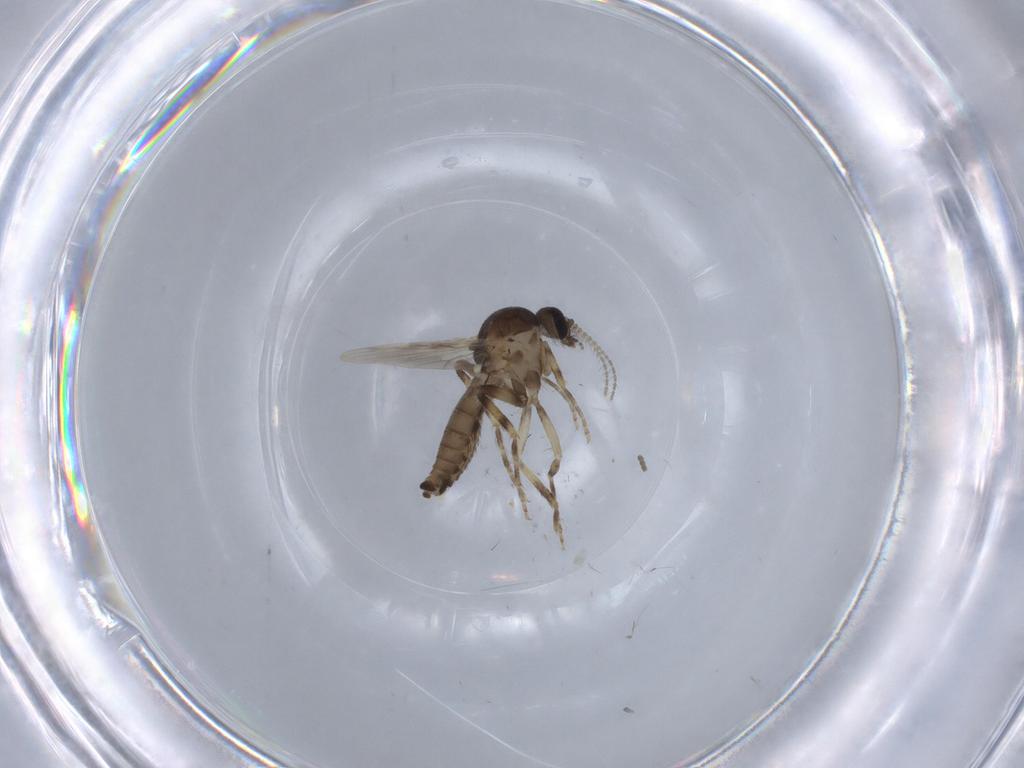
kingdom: Animalia
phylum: Arthropoda
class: Insecta
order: Diptera
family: Ceratopogonidae
